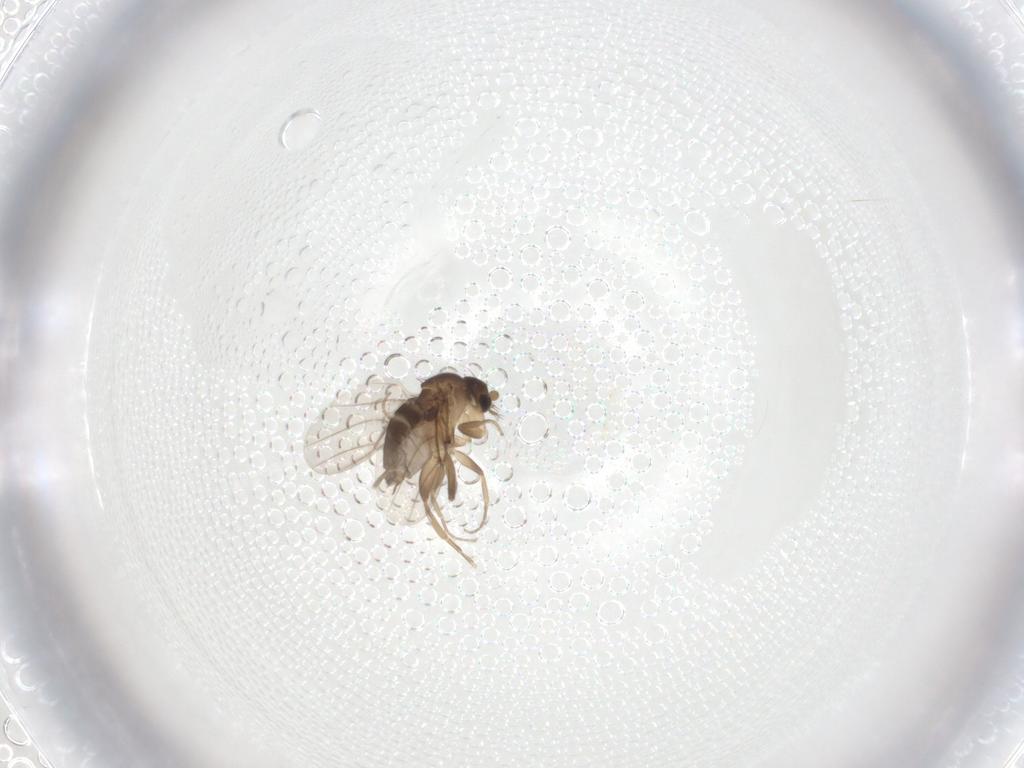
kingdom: Animalia
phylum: Arthropoda
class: Insecta
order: Diptera
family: Phoridae
